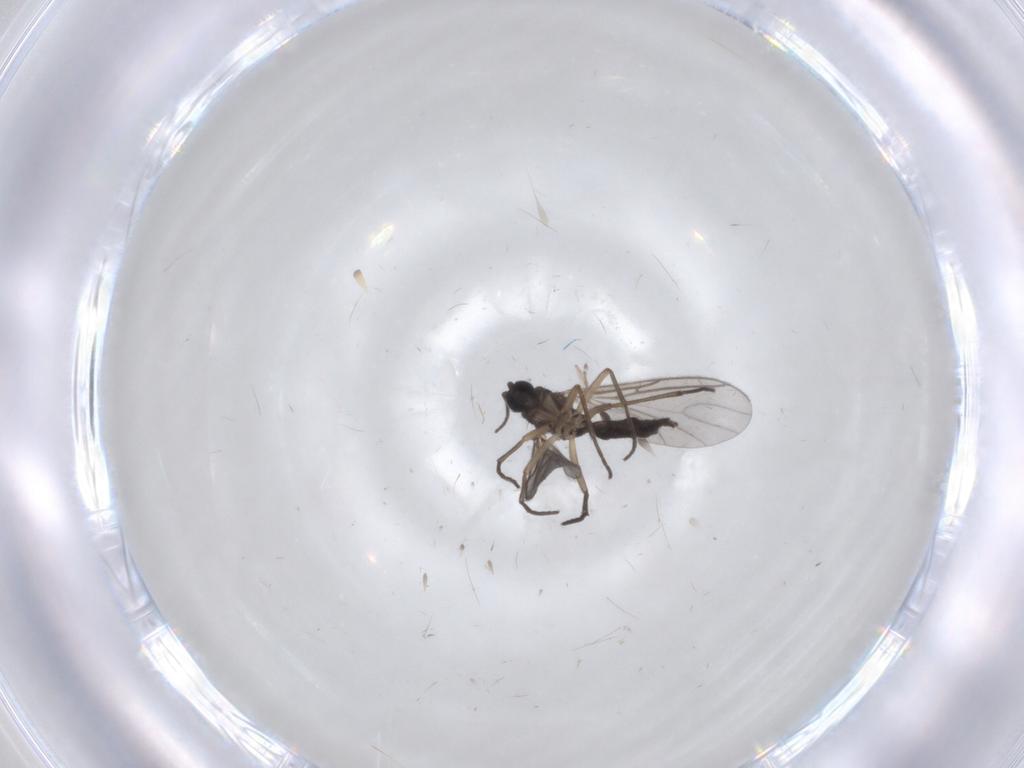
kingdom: Animalia
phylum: Arthropoda
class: Insecta
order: Diptera
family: Sciaridae
